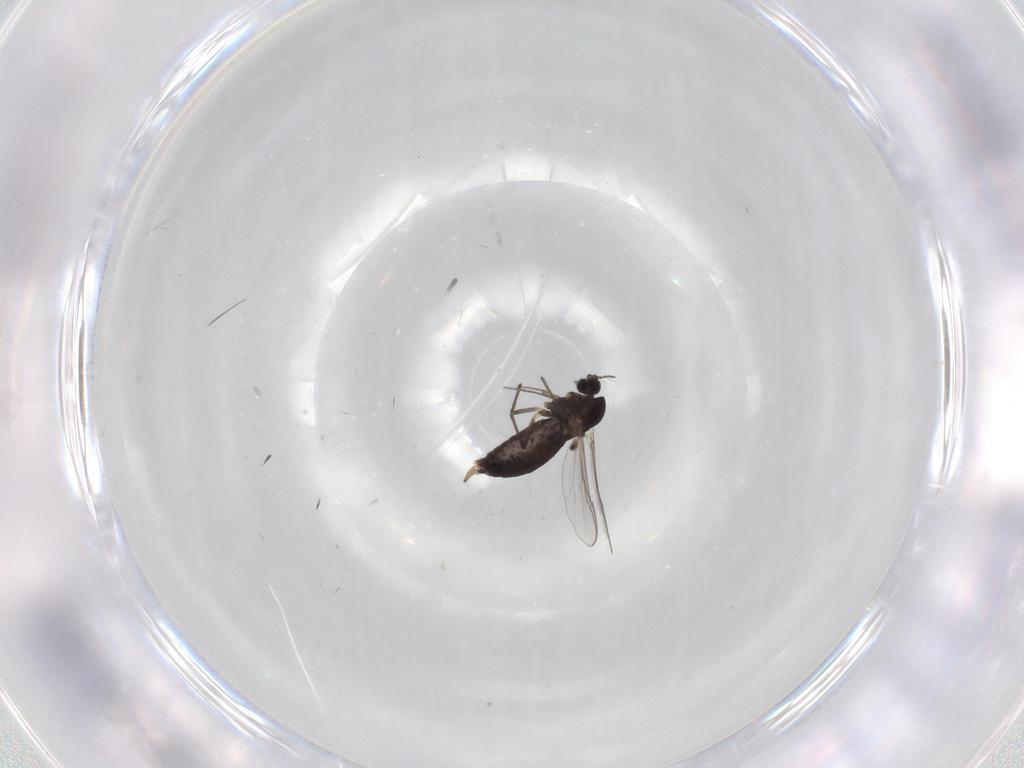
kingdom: Animalia
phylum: Arthropoda
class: Insecta
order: Diptera
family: Chironomidae
